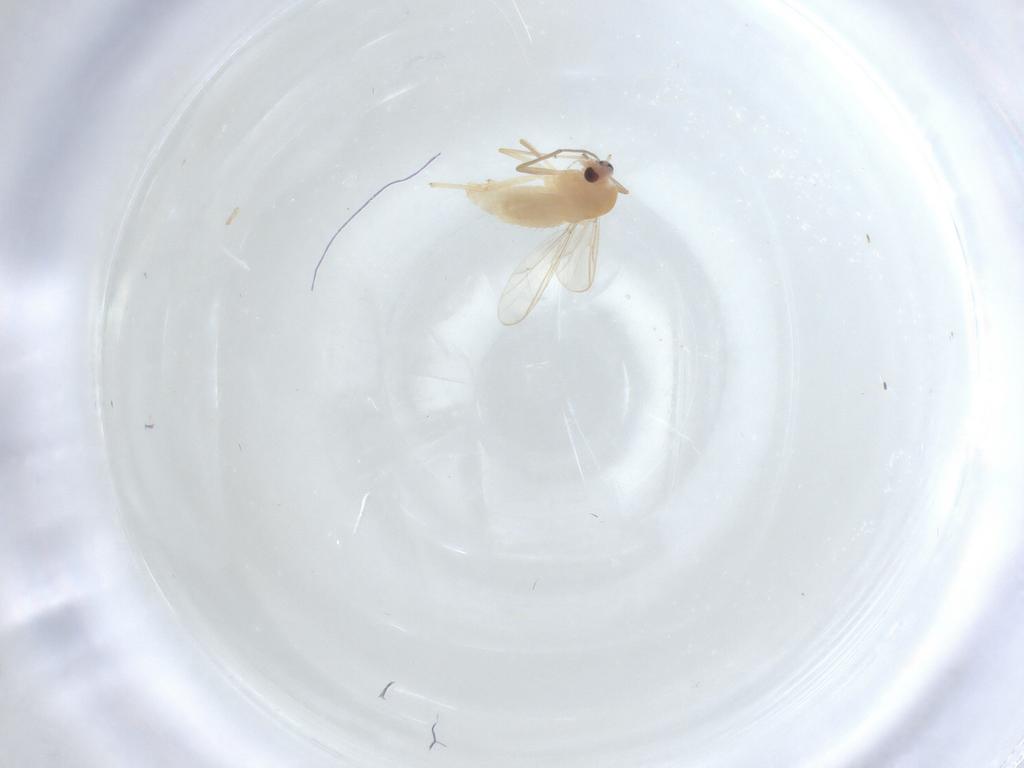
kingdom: Animalia
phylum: Arthropoda
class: Insecta
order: Diptera
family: Chironomidae
